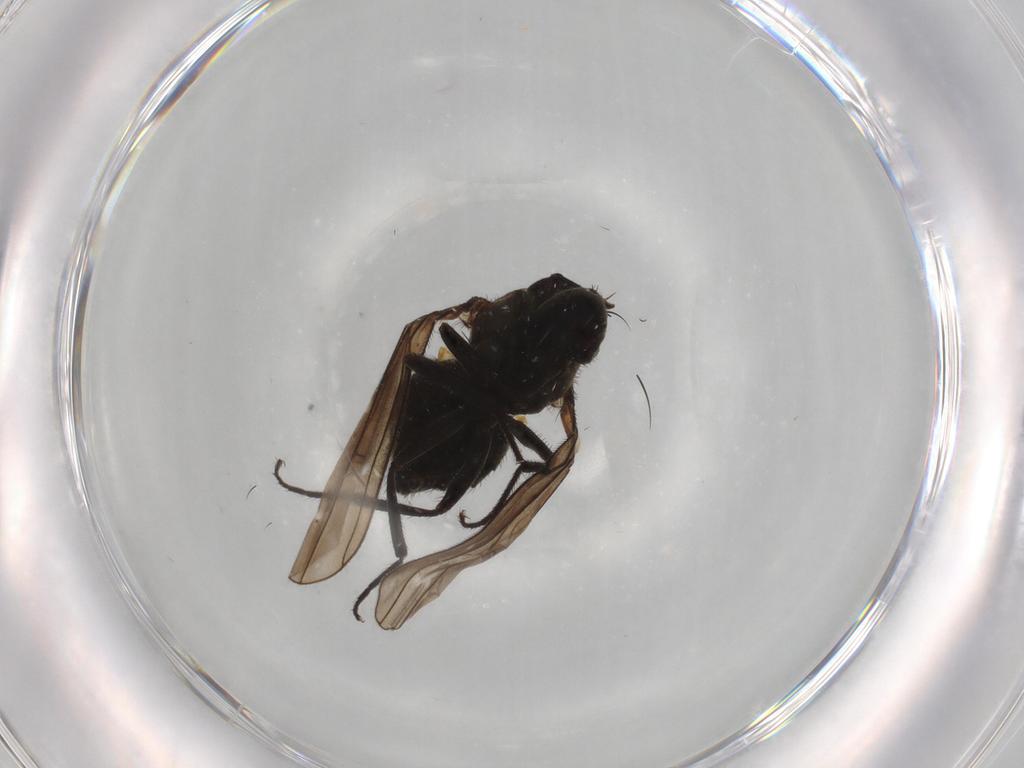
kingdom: Animalia
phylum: Arthropoda
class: Insecta
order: Diptera
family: Ephydridae
